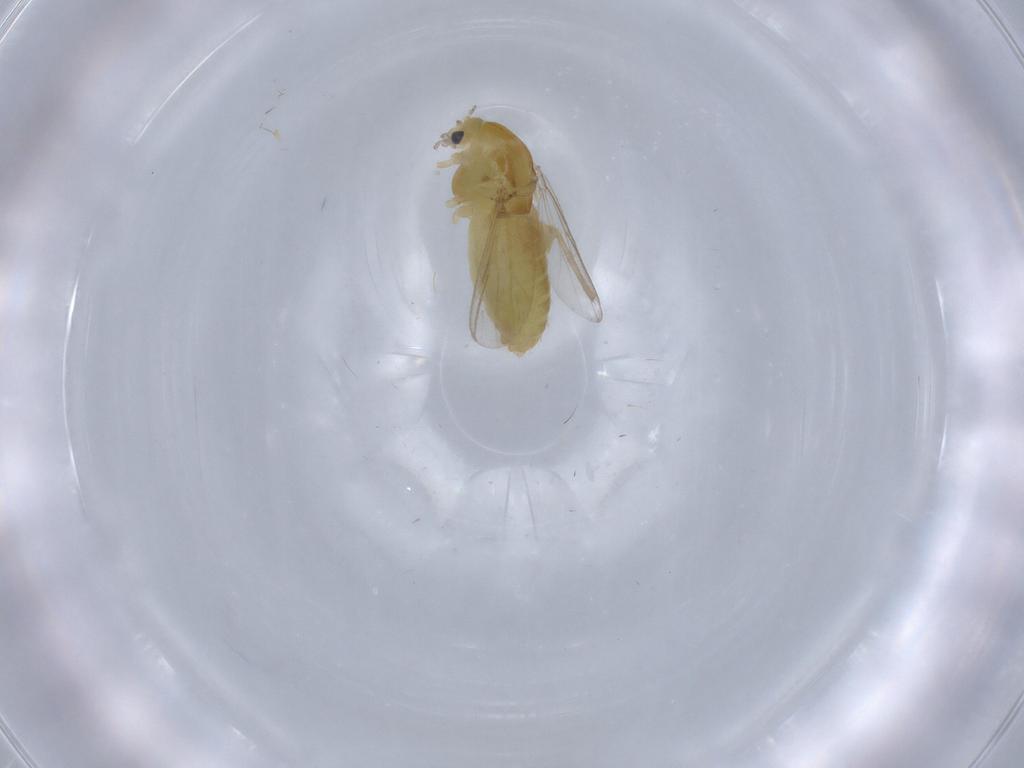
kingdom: Animalia
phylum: Arthropoda
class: Insecta
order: Diptera
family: Chironomidae
